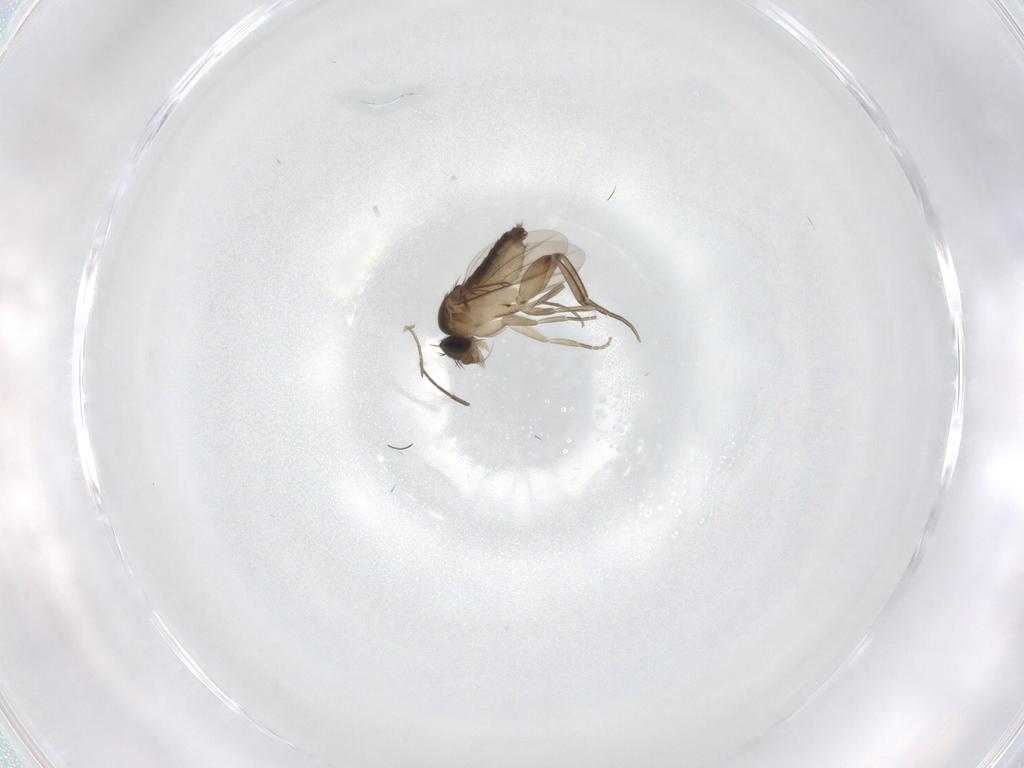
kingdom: Animalia
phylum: Arthropoda
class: Insecta
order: Diptera
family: Phoridae
